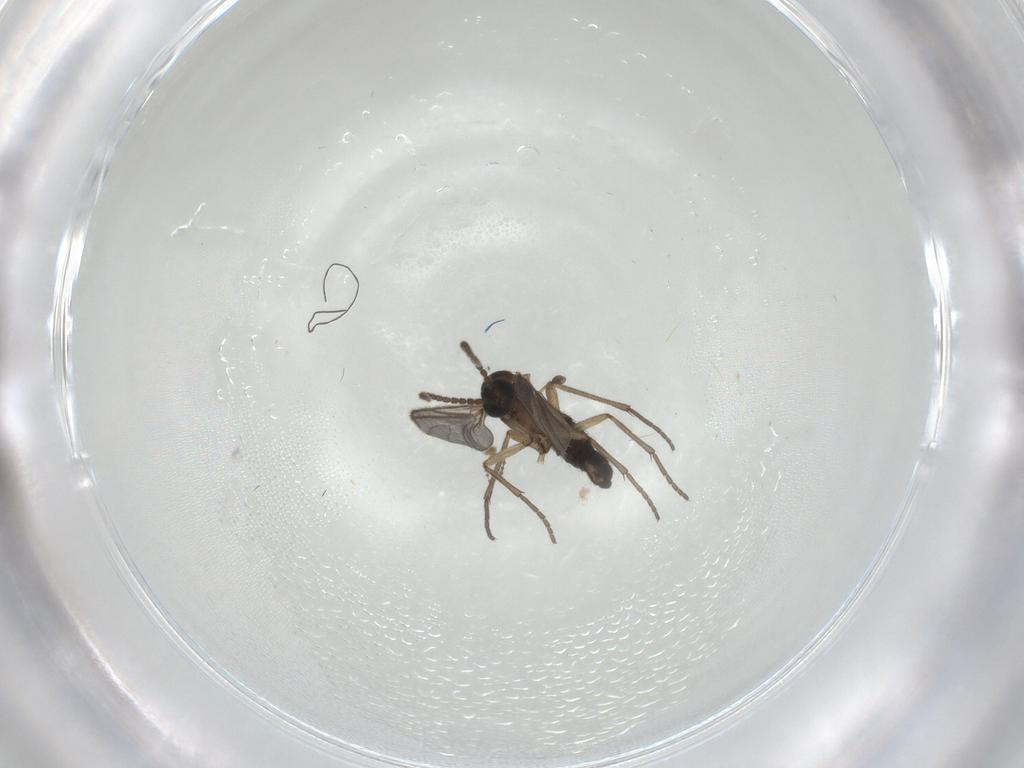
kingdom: Animalia
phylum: Arthropoda
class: Insecta
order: Diptera
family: Sciaridae
